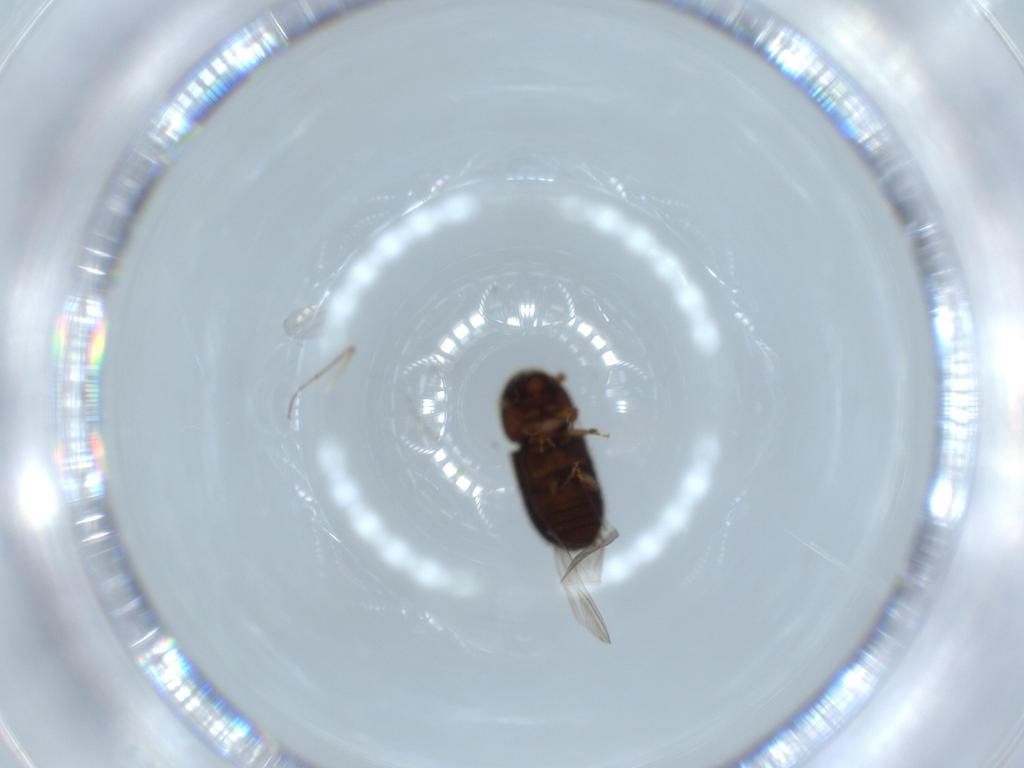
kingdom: Animalia
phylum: Arthropoda
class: Insecta
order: Coleoptera
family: Curculionidae
